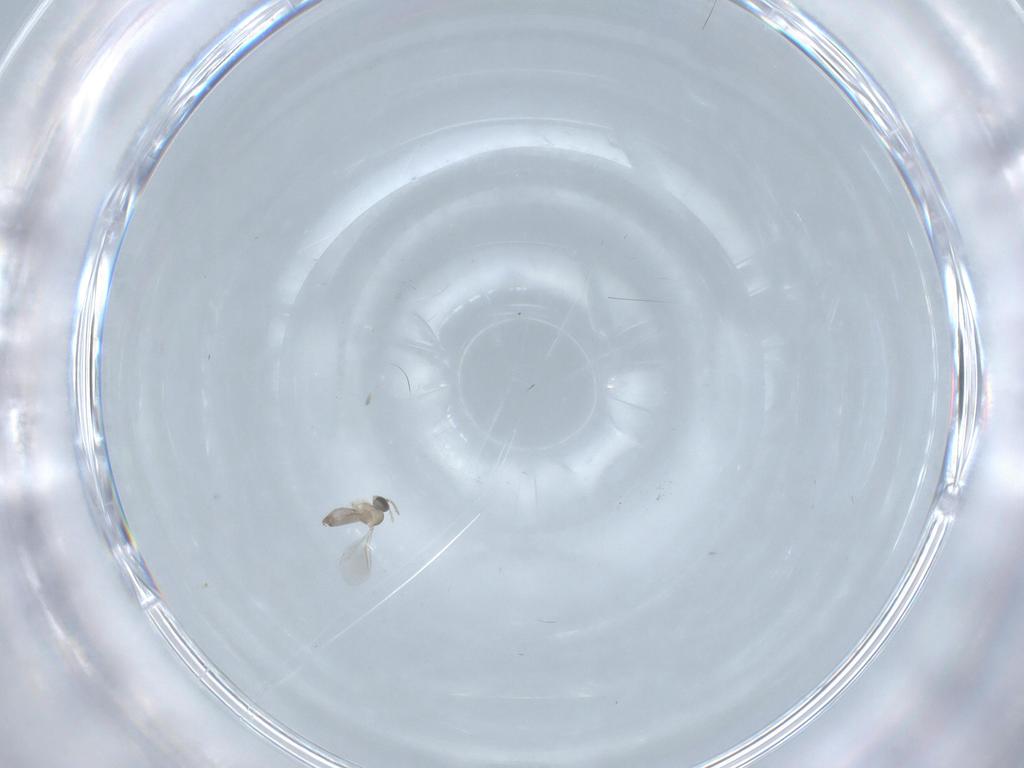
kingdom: Animalia
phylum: Arthropoda
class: Insecta
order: Diptera
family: Cecidomyiidae
